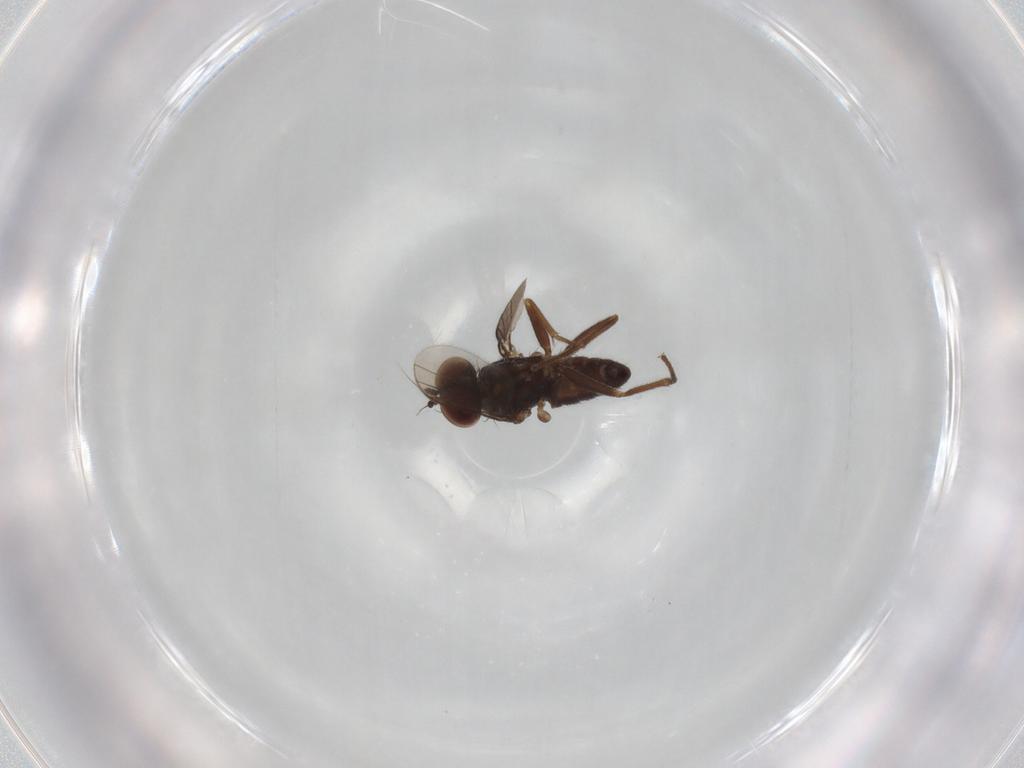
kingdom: Animalia
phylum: Arthropoda
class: Insecta
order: Diptera
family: Dolichopodidae
